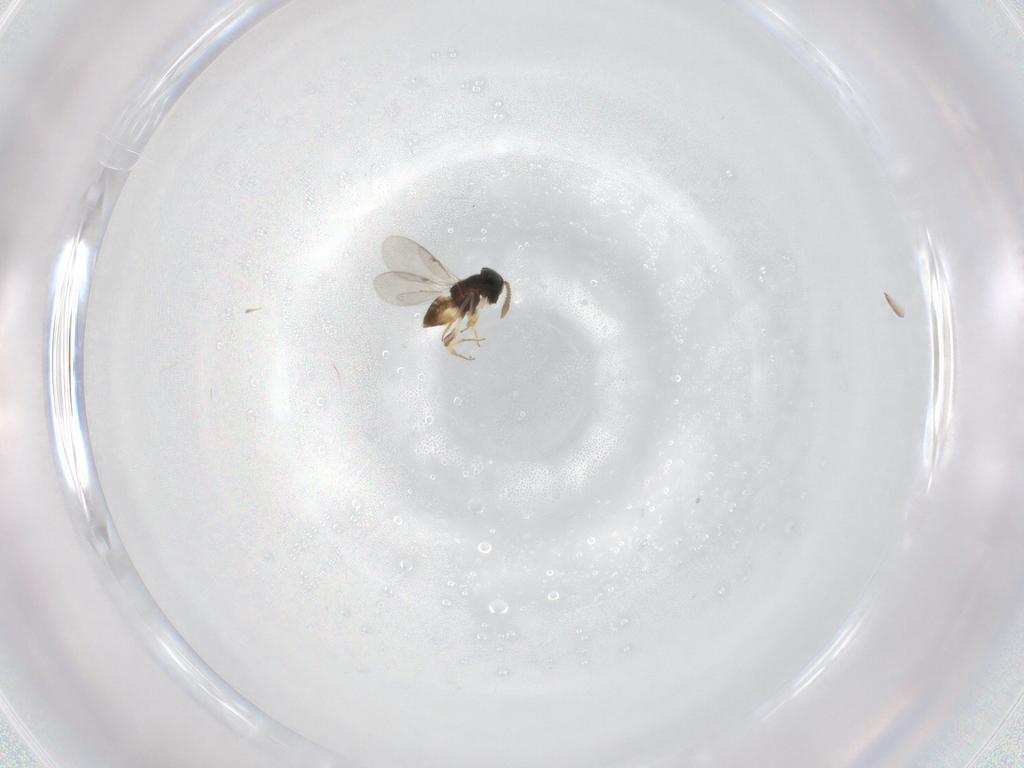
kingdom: Animalia
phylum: Arthropoda
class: Insecta
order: Hymenoptera
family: Encyrtidae
